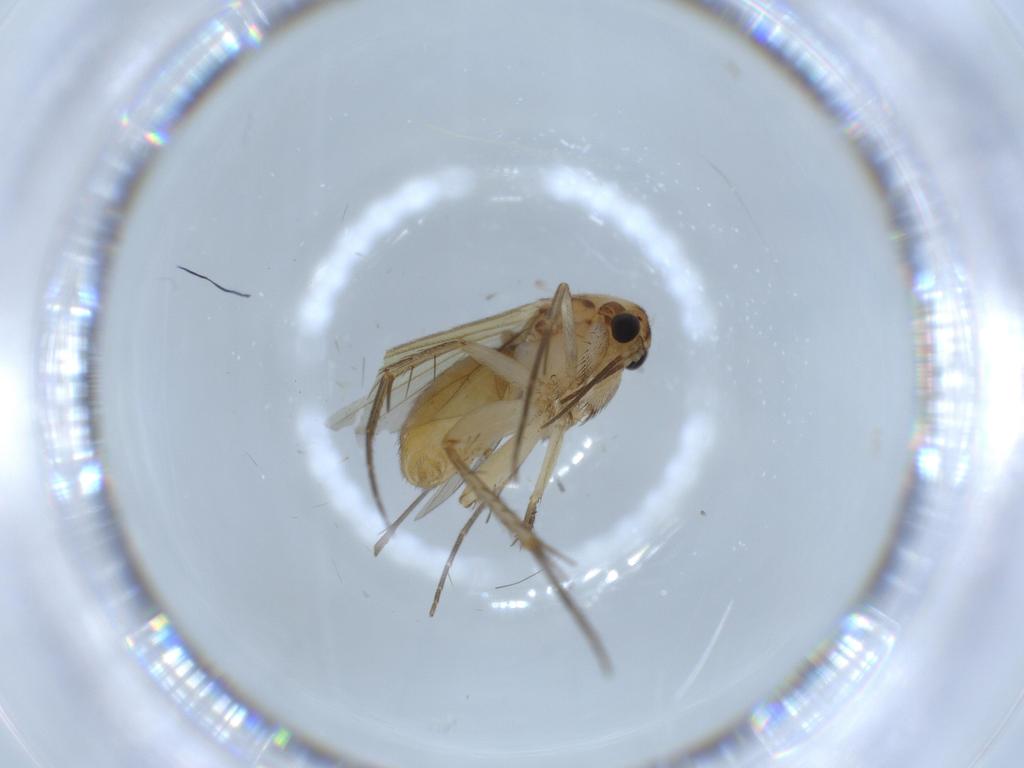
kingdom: Animalia
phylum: Arthropoda
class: Insecta
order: Diptera
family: Mycetophilidae
